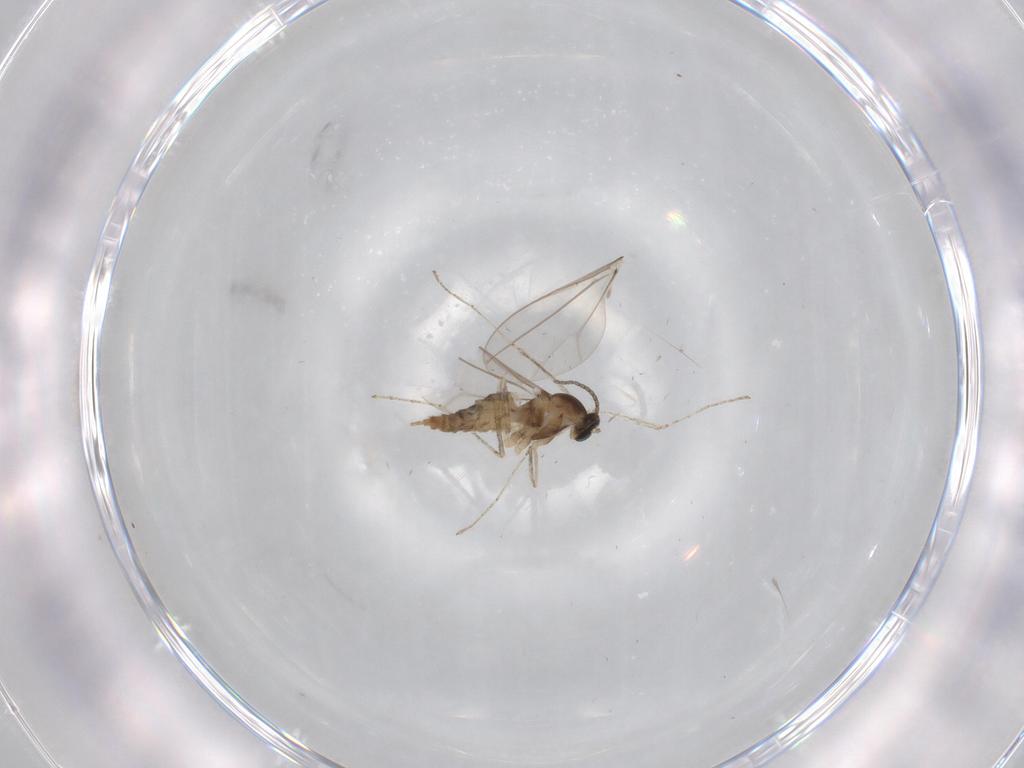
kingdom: Animalia
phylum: Arthropoda
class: Insecta
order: Diptera
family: Cecidomyiidae
